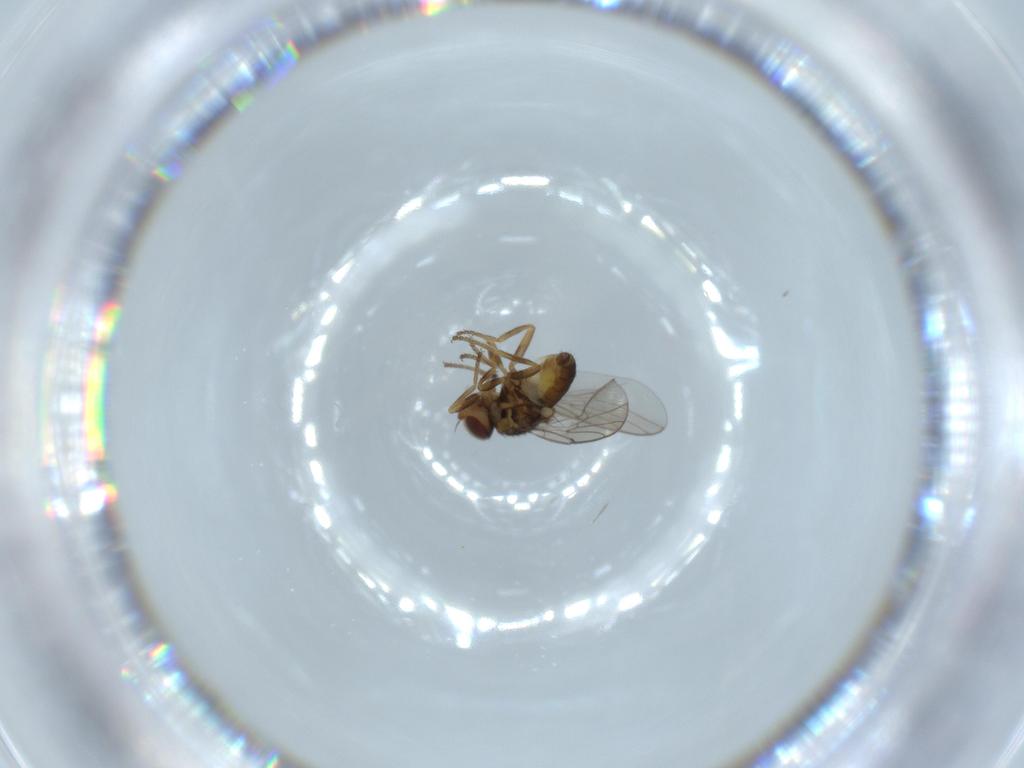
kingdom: Animalia
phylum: Arthropoda
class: Insecta
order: Diptera
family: Chloropidae
